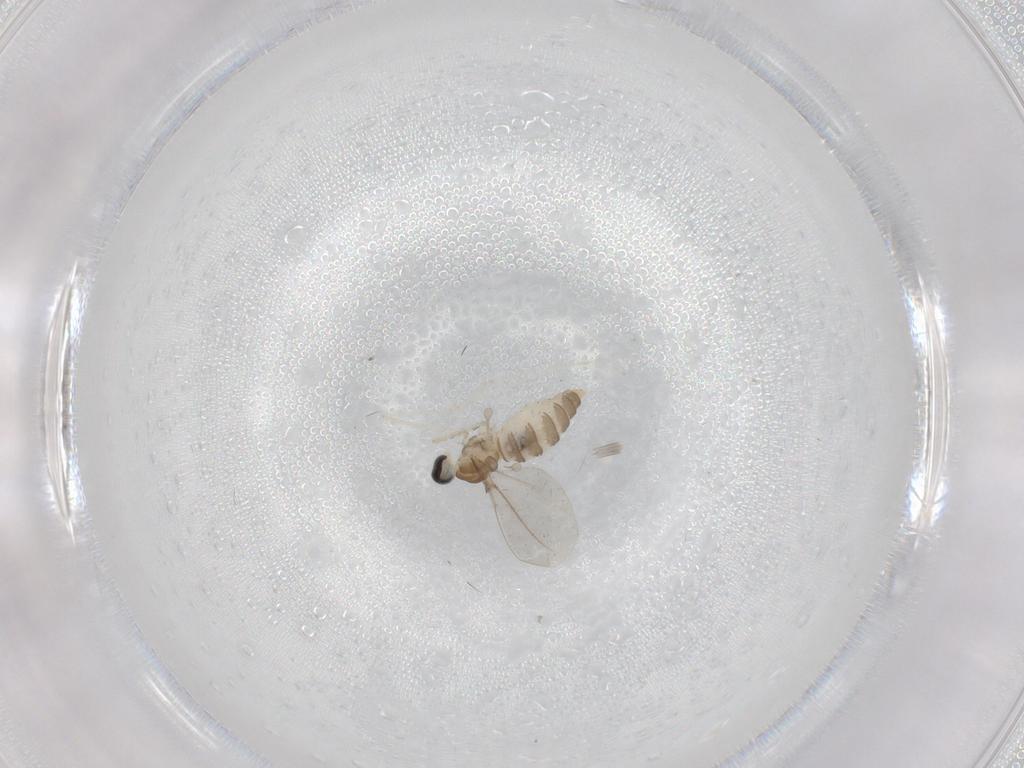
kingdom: Animalia
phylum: Arthropoda
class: Insecta
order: Diptera
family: Cecidomyiidae
